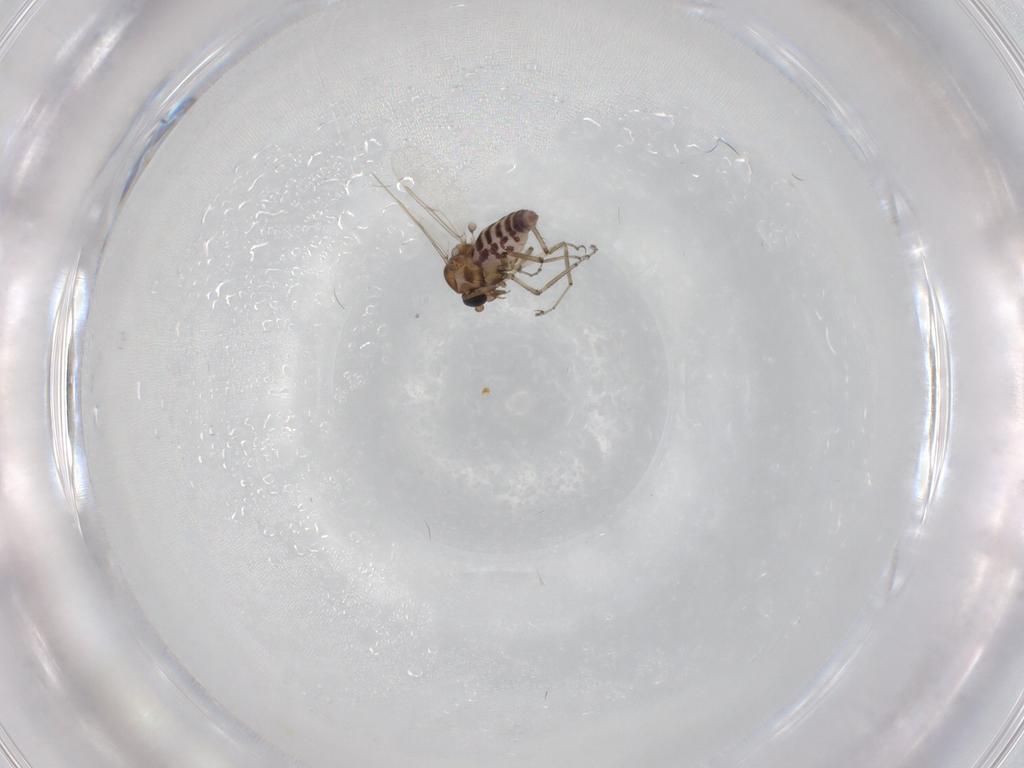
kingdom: Animalia
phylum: Arthropoda
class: Insecta
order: Diptera
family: Ceratopogonidae
